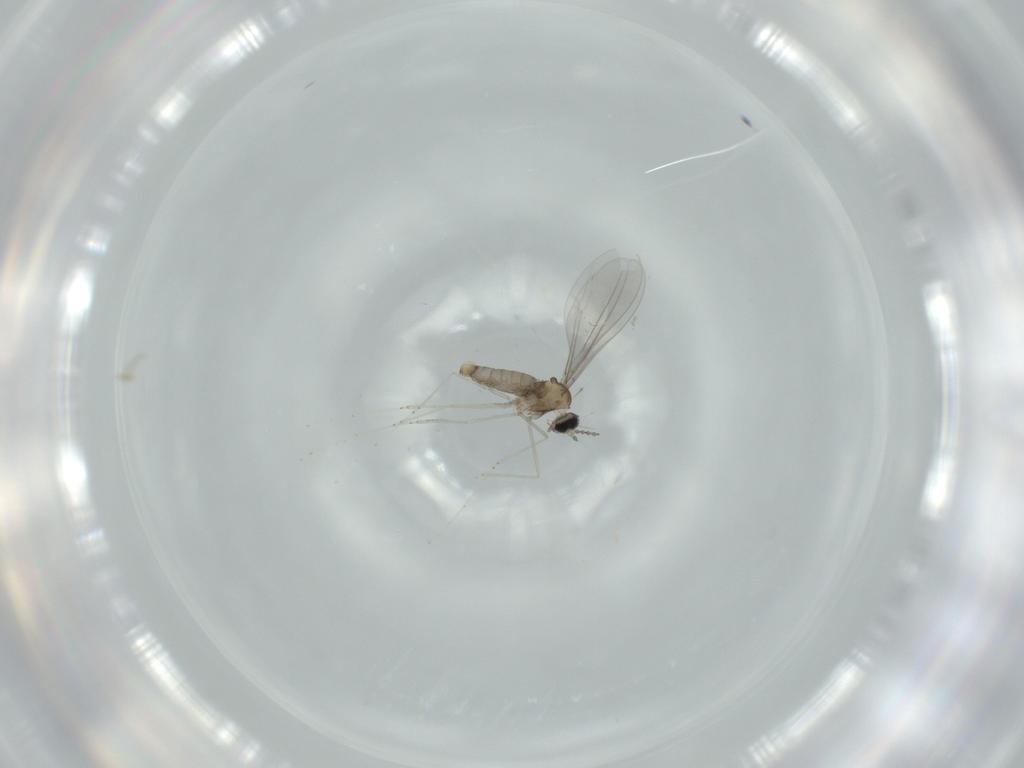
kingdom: Animalia
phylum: Arthropoda
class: Insecta
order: Diptera
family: Cecidomyiidae
